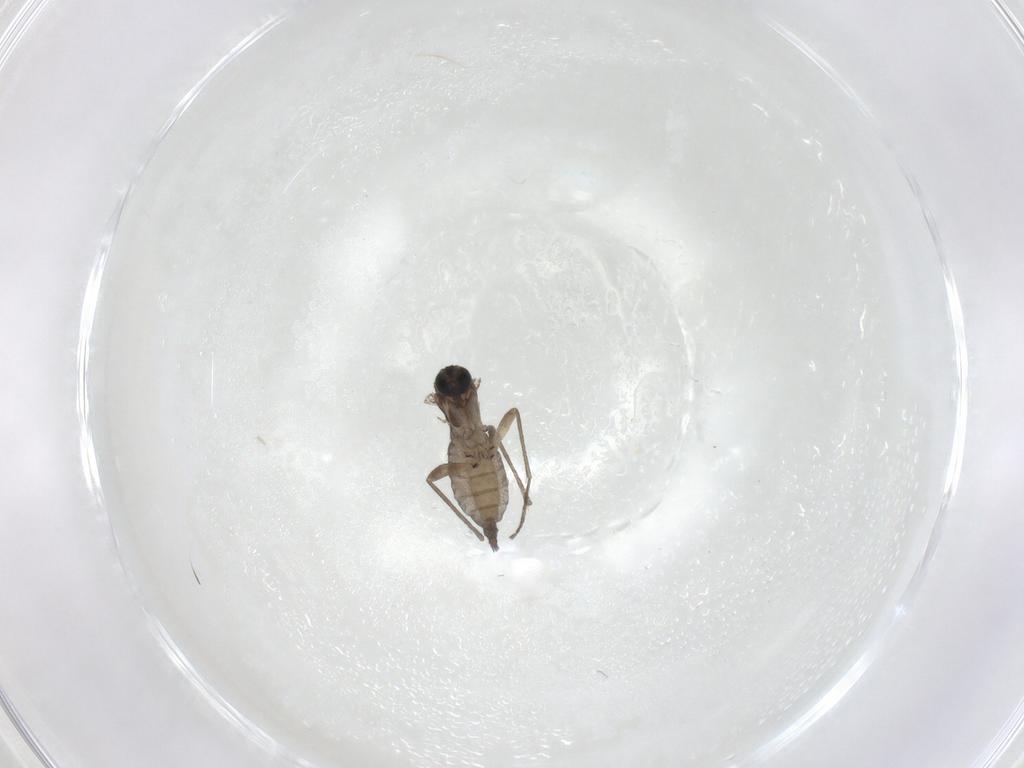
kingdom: Animalia
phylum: Arthropoda
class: Insecta
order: Diptera
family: Sciaridae
